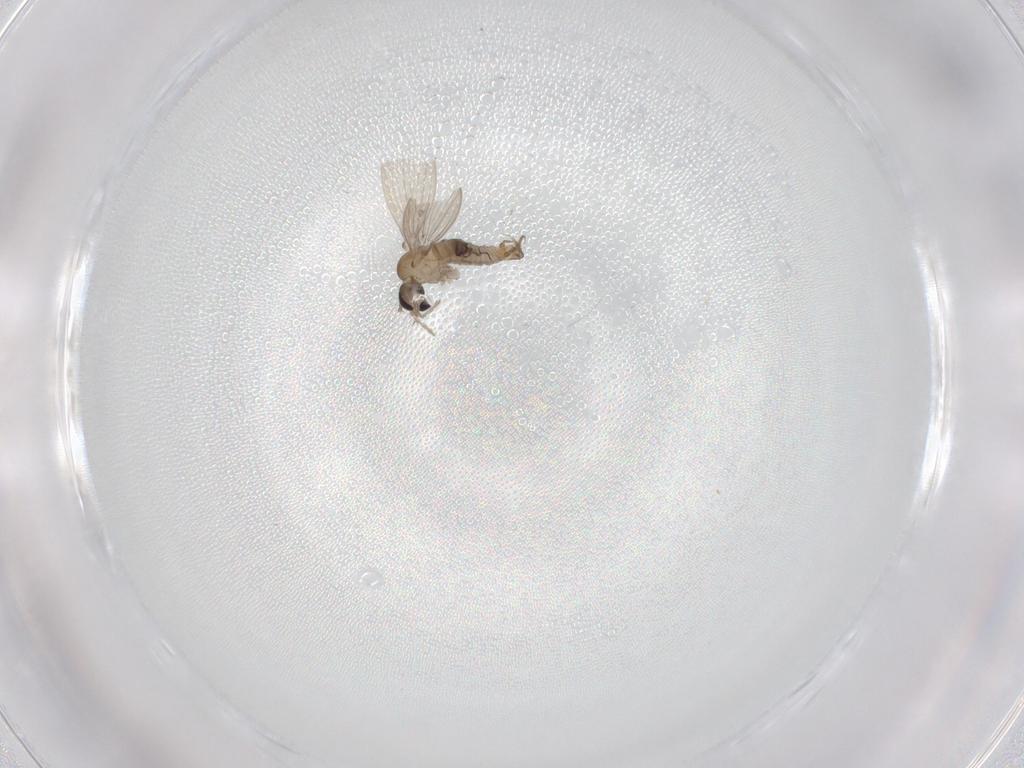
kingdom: Animalia
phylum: Arthropoda
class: Insecta
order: Diptera
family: Psychodidae
